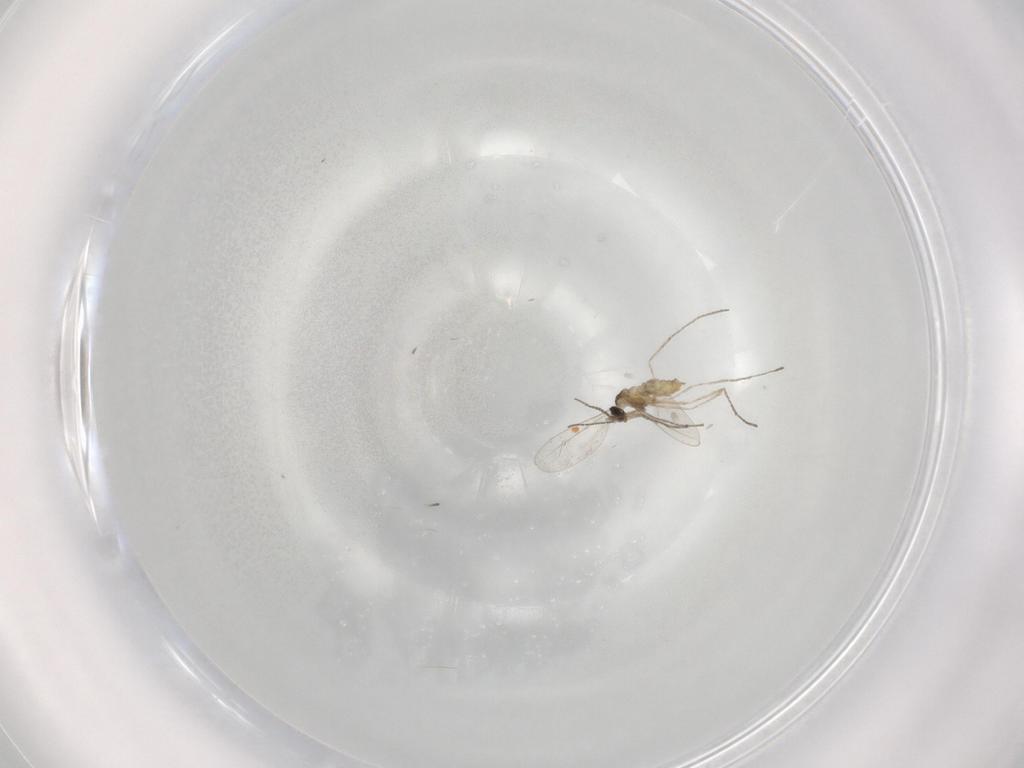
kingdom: Animalia
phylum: Arthropoda
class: Insecta
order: Diptera
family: Cecidomyiidae
